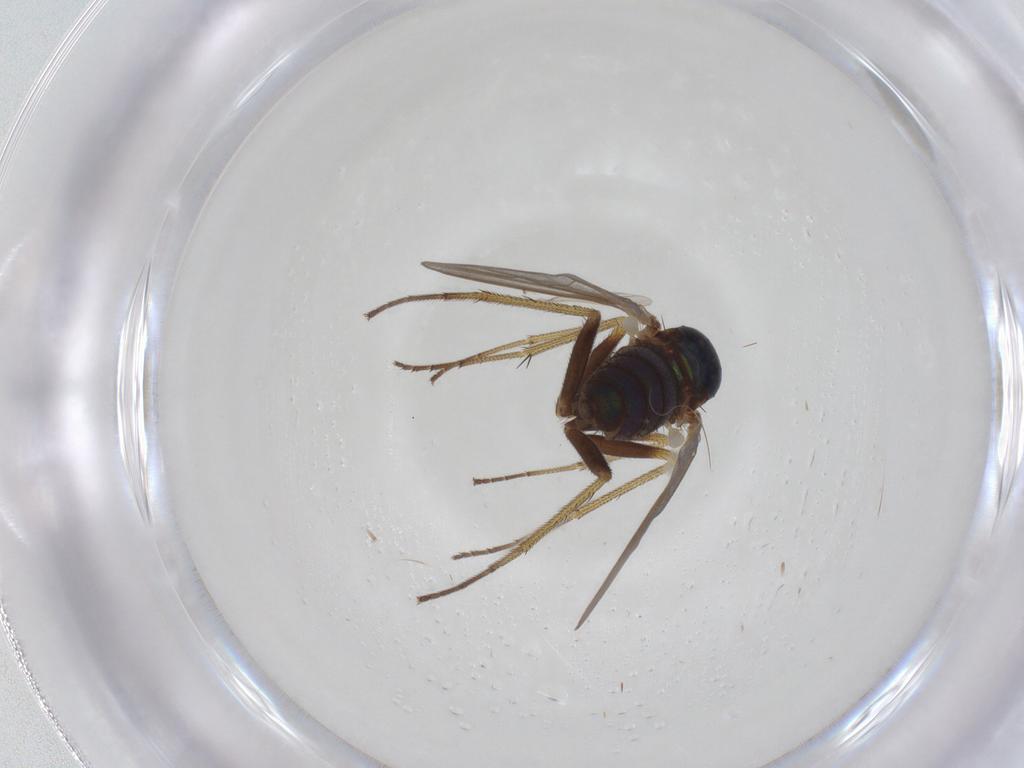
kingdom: Animalia
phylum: Arthropoda
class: Insecta
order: Diptera
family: Dolichopodidae
